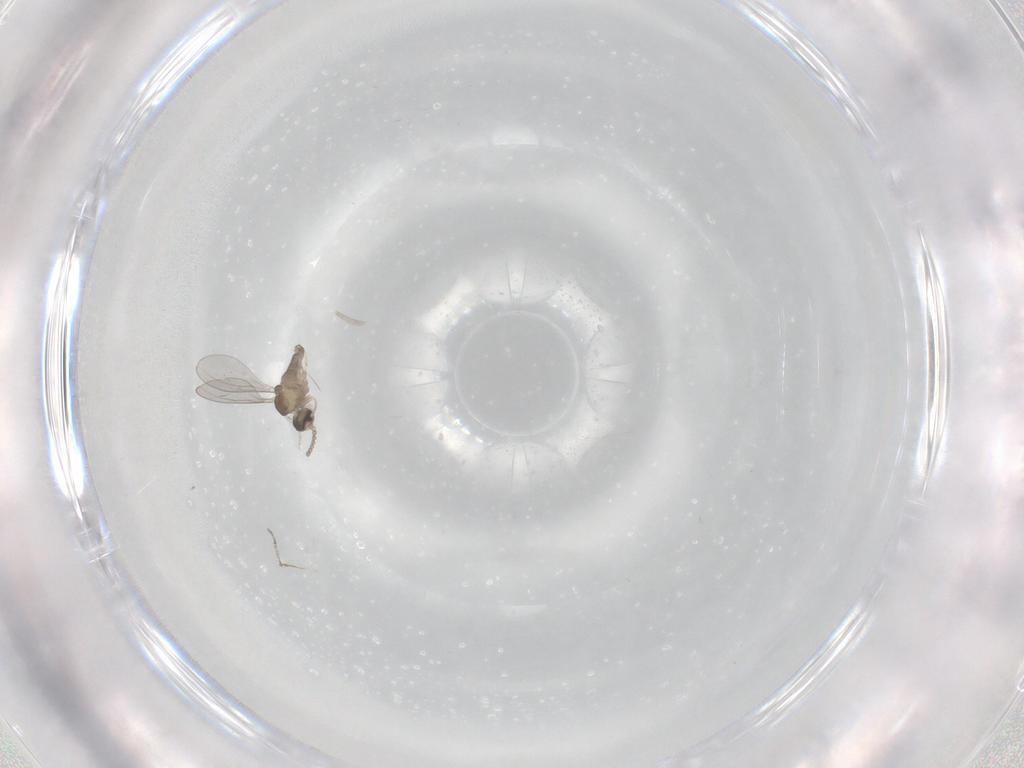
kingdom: Animalia
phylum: Arthropoda
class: Insecta
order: Diptera
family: Cecidomyiidae
